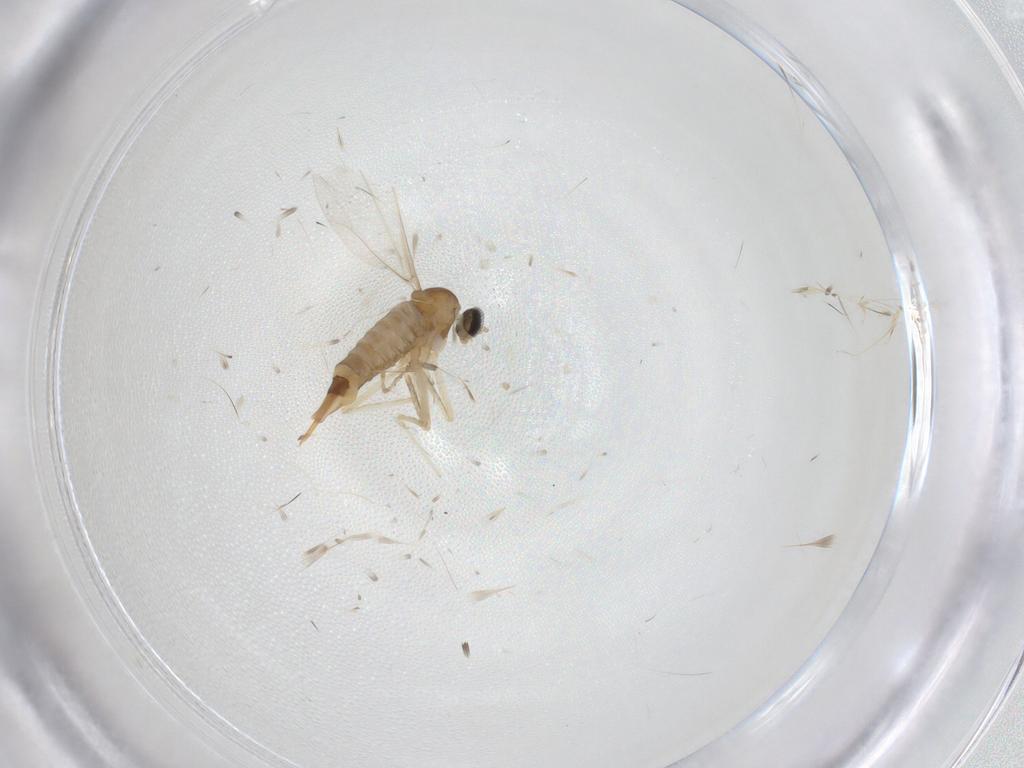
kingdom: Animalia
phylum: Arthropoda
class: Insecta
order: Diptera
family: Cecidomyiidae
